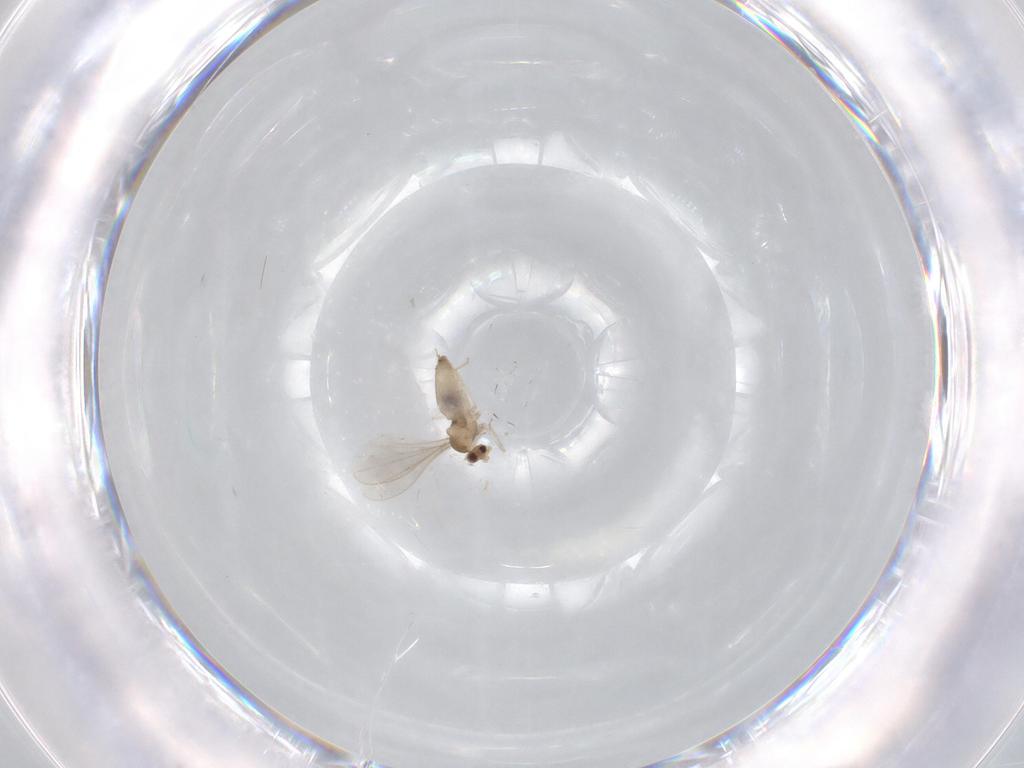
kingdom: Animalia
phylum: Arthropoda
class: Insecta
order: Diptera
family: Cecidomyiidae
